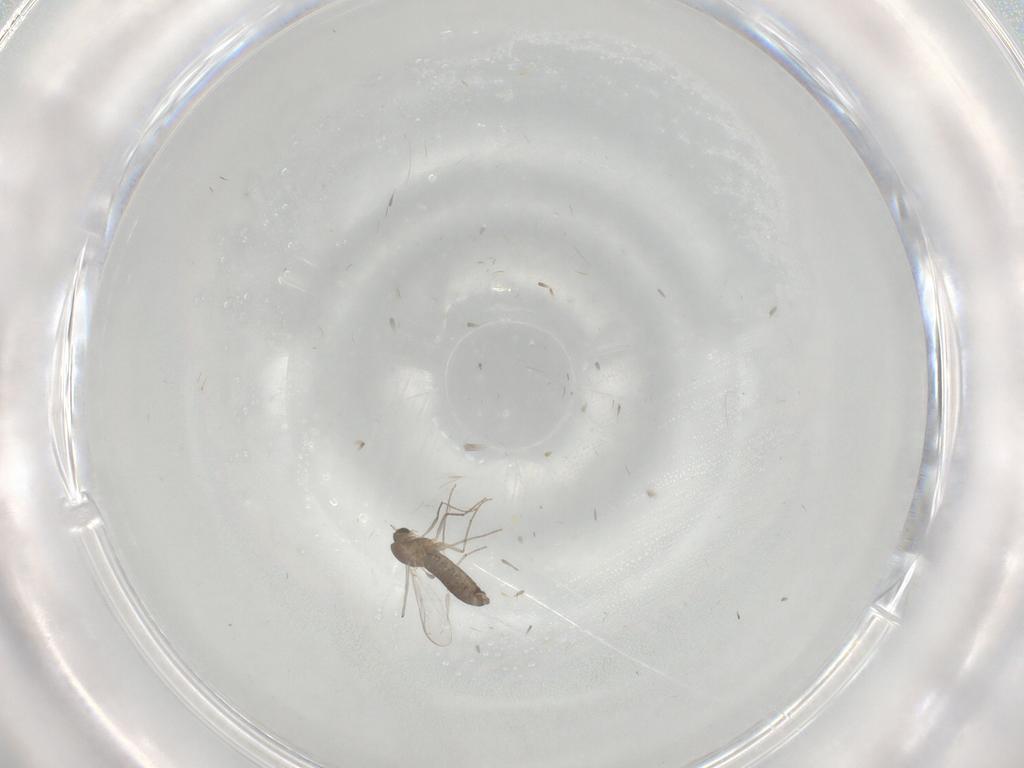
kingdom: Animalia
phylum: Arthropoda
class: Insecta
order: Diptera
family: Chironomidae
